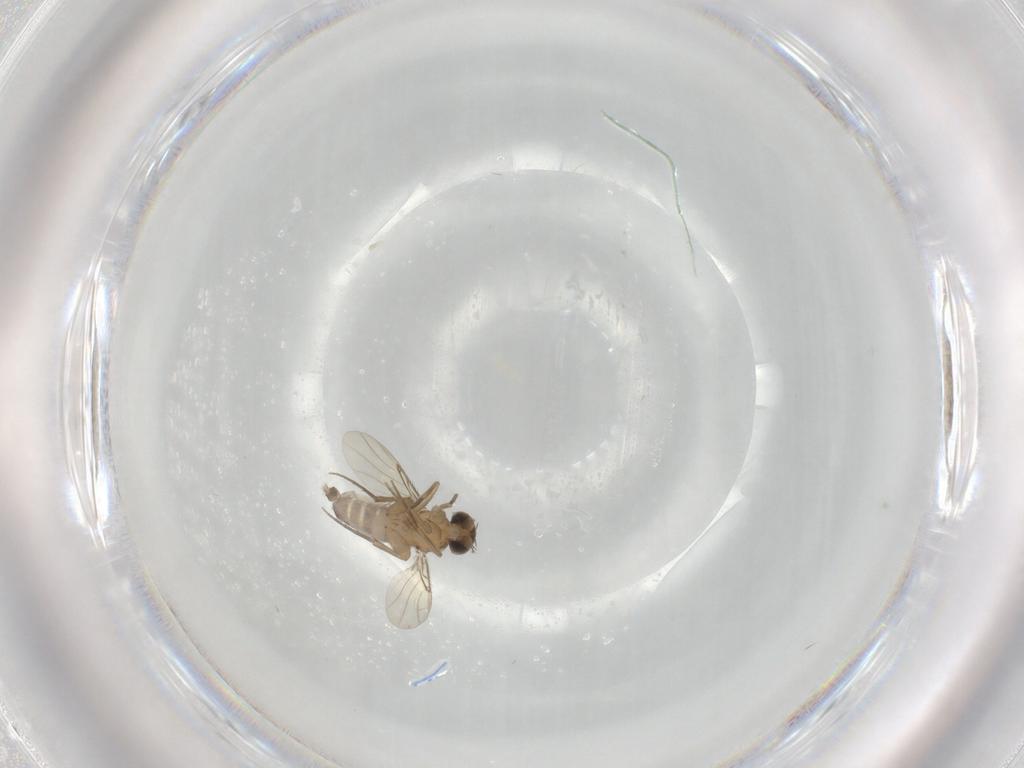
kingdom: Animalia
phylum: Arthropoda
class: Insecta
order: Diptera
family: Phoridae
